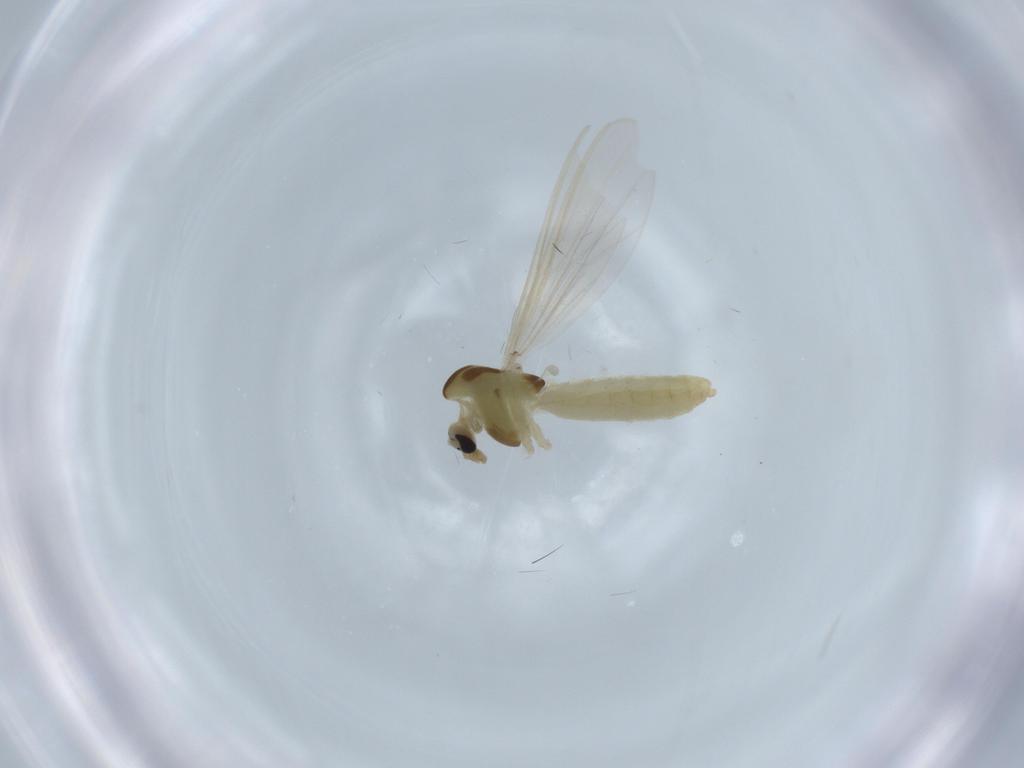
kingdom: Animalia
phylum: Arthropoda
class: Insecta
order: Diptera
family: Chironomidae
